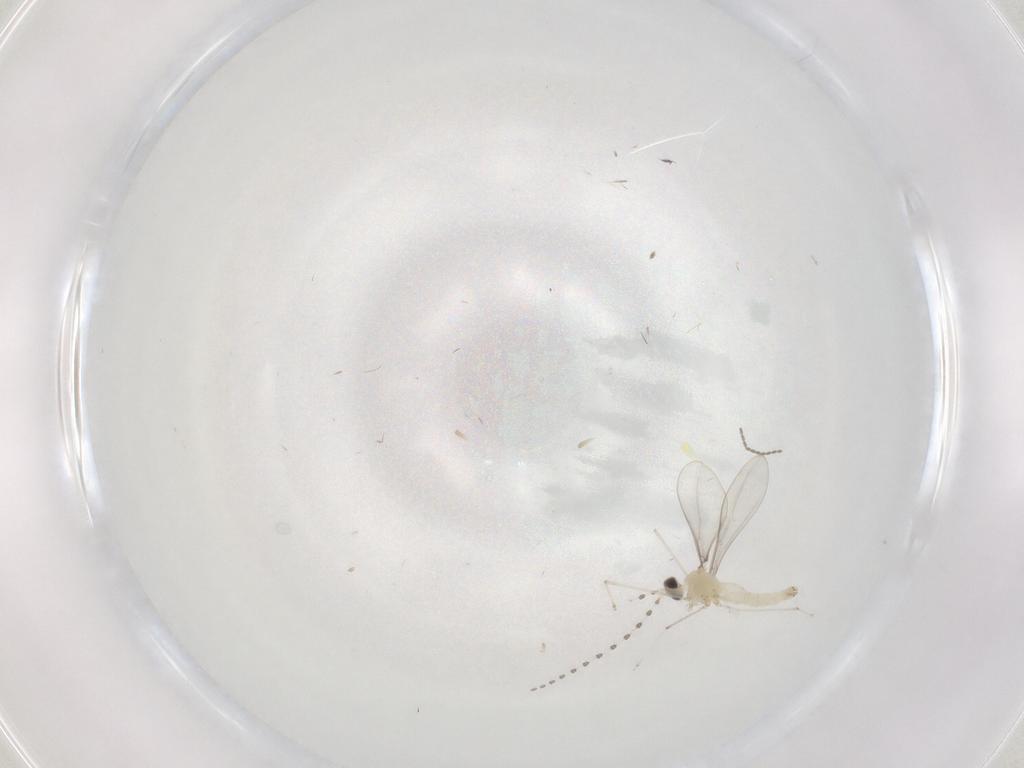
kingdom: Animalia
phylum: Arthropoda
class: Insecta
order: Diptera
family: Cecidomyiidae
